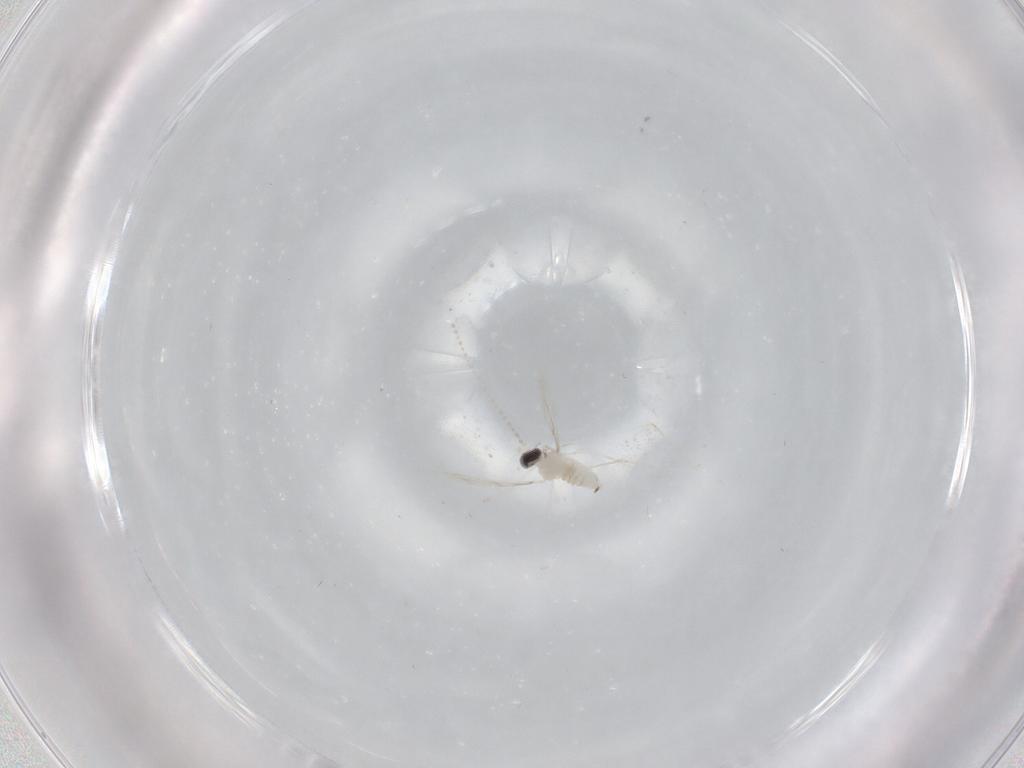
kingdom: Animalia
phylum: Arthropoda
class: Insecta
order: Diptera
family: Cecidomyiidae
